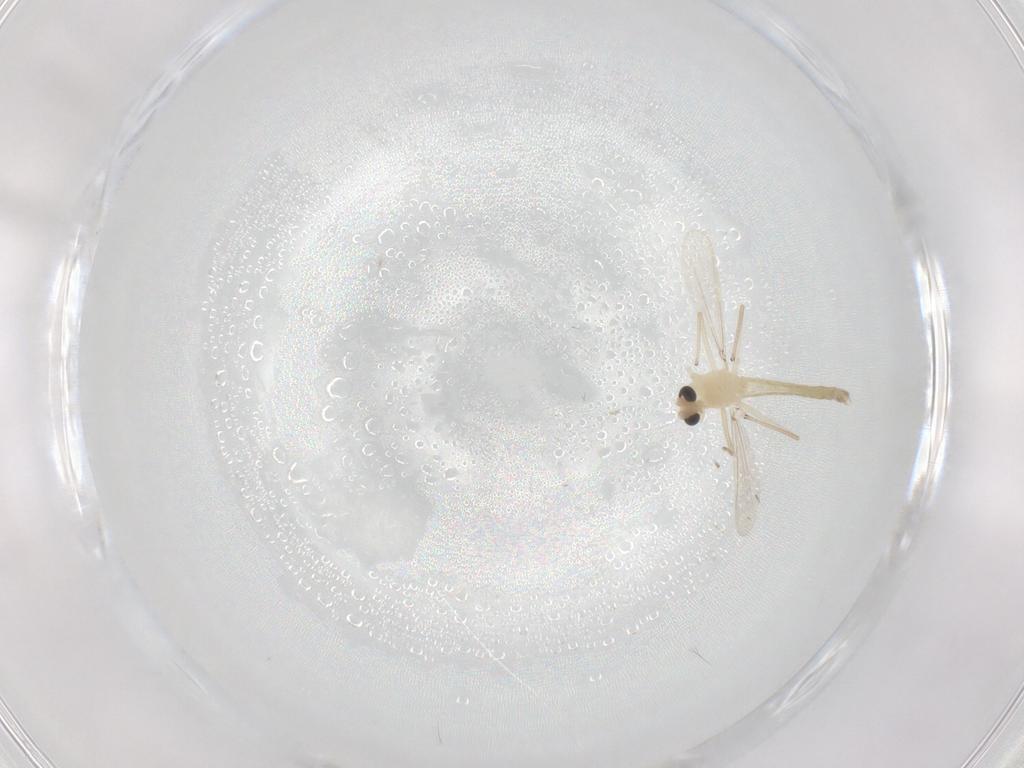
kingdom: Animalia
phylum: Arthropoda
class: Insecta
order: Diptera
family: Chironomidae
